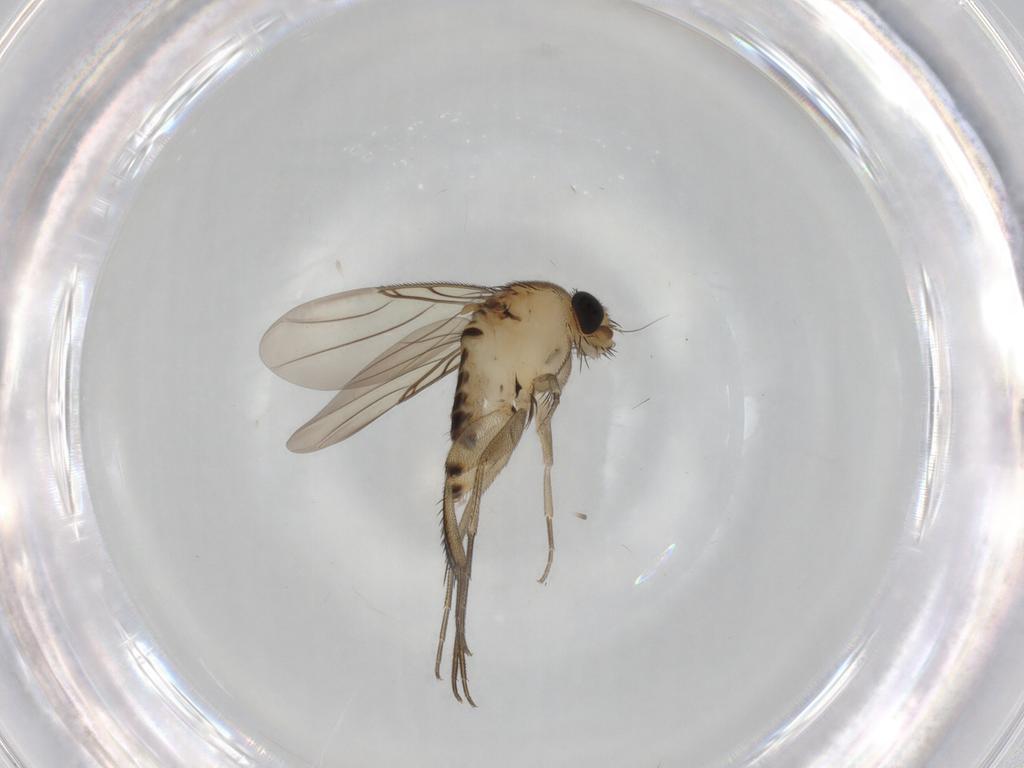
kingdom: Animalia
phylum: Arthropoda
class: Insecta
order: Diptera
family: Phoridae
